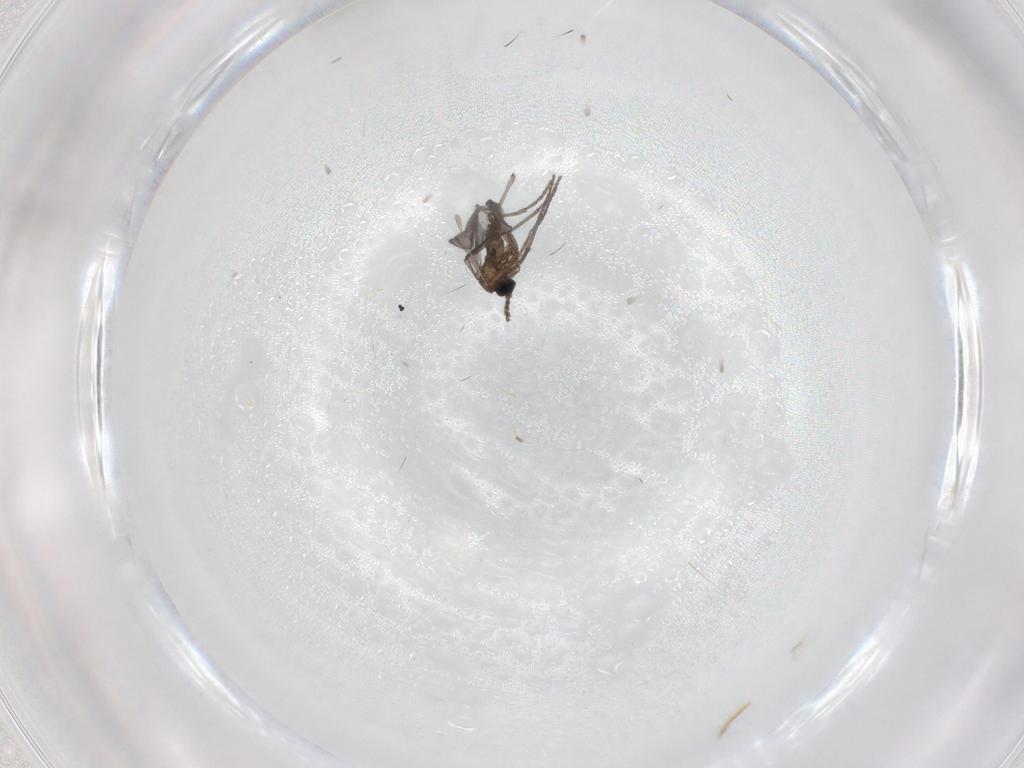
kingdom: Animalia
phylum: Arthropoda
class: Insecta
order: Diptera
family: Sciaridae
